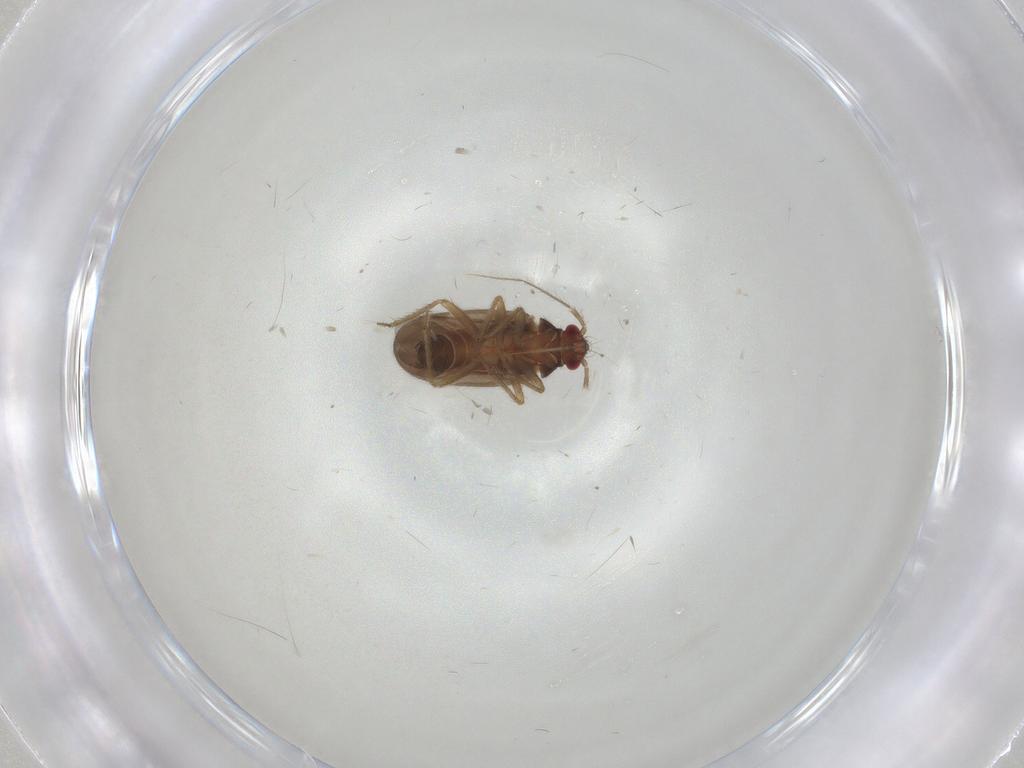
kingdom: Animalia
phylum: Arthropoda
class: Insecta
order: Hemiptera
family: Ceratocombidae
